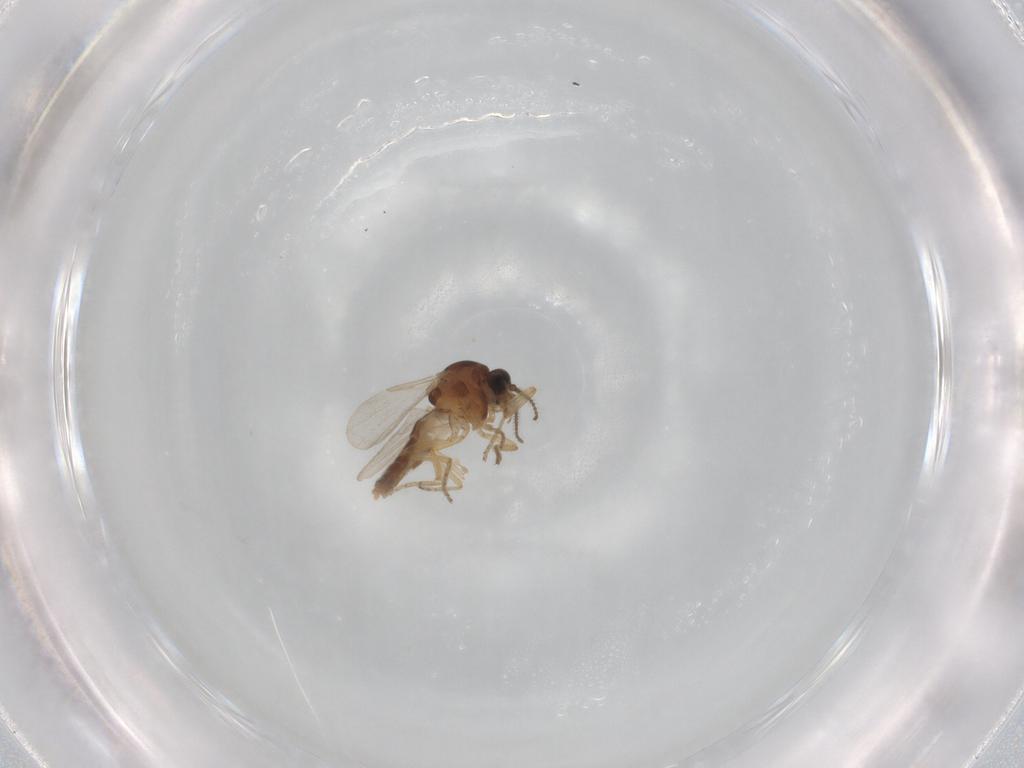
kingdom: Animalia
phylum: Arthropoda
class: Insecta
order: Diptera
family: Ceratopogonidae
